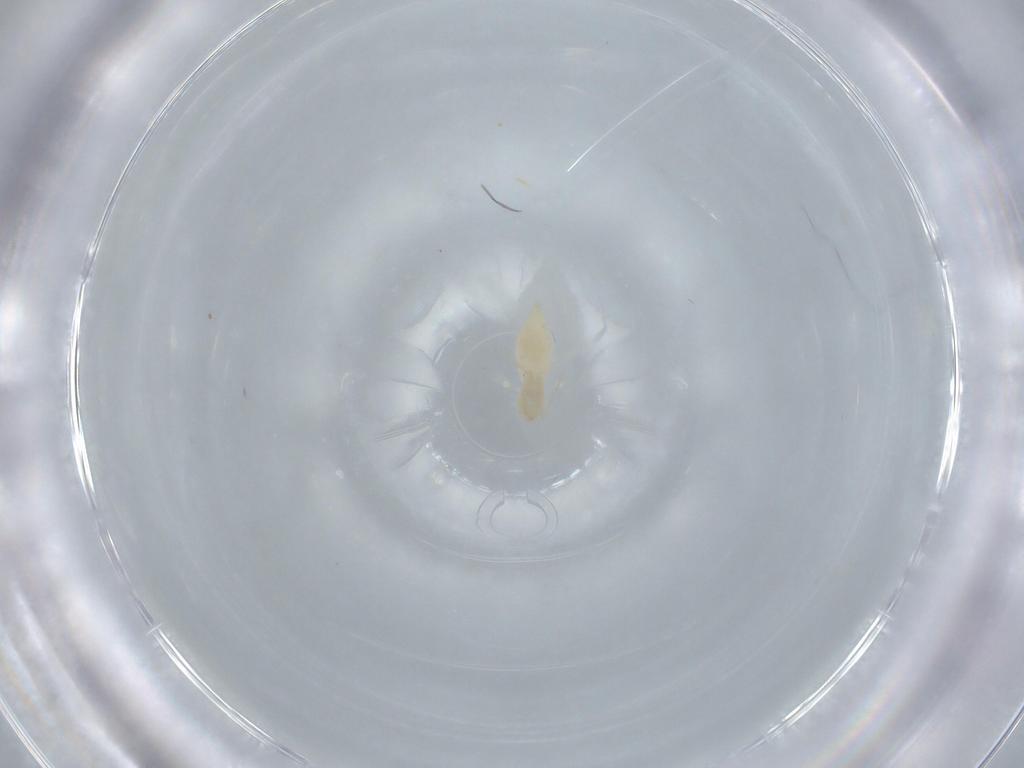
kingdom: Animalia
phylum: Arthropoda
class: Insecta
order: Diptera
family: Cecidomyiidae
